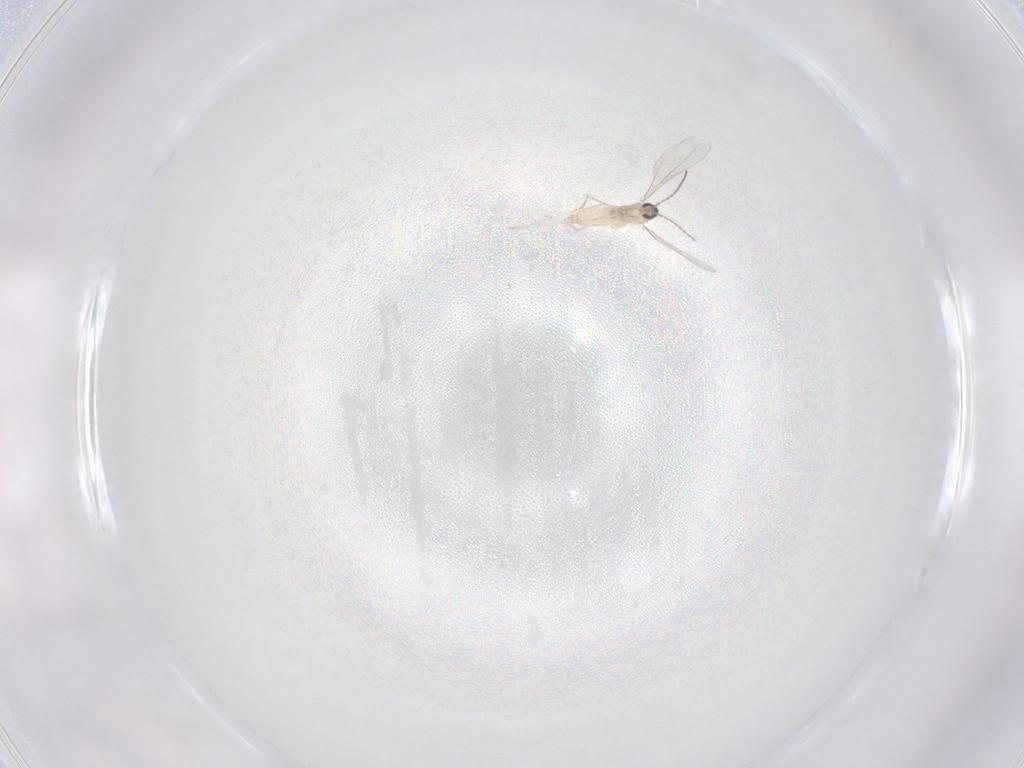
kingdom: Animalia
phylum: Arthropoda
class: Insecta
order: Diptera
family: Cecidomyiidae
